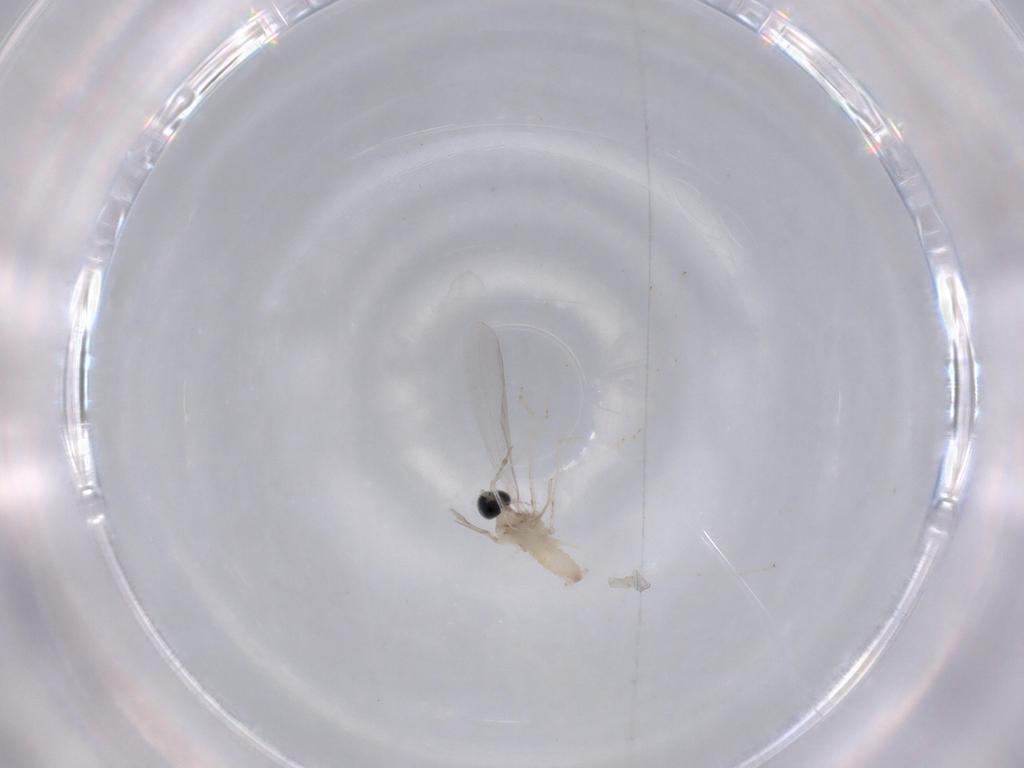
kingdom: Animalia
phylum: Arthropoda
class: Insecta
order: Diptera
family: Cecidomyiidae
